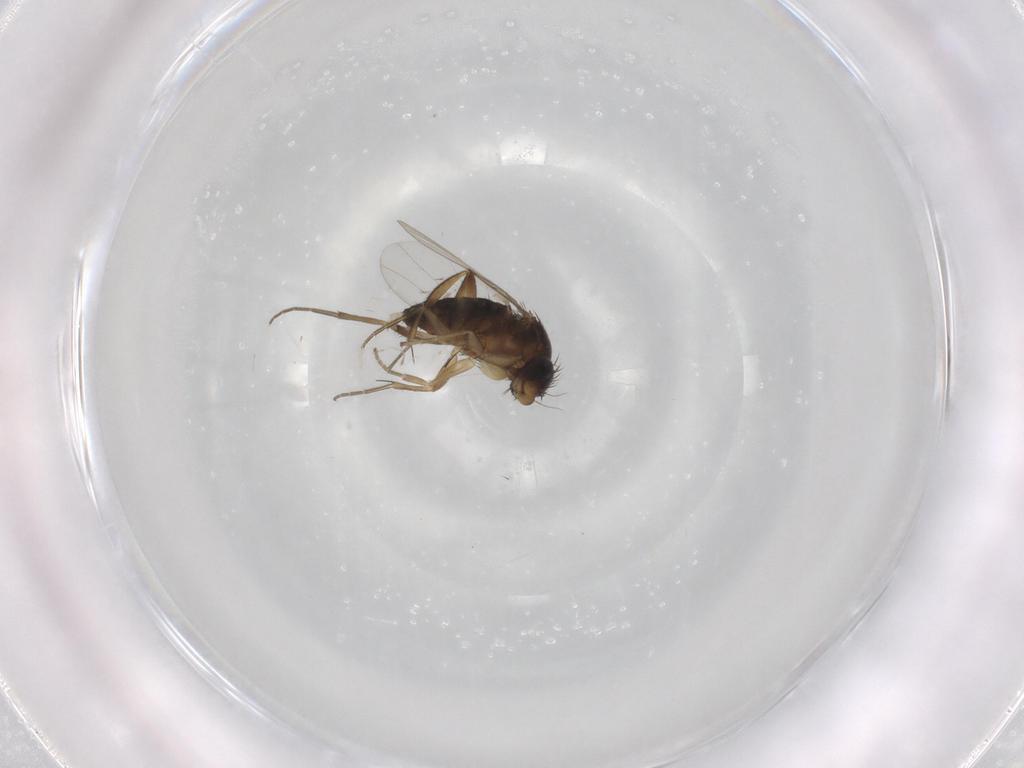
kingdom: Animalia
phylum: Arthropoda
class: Insecta
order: Diptera
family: Phoridae
